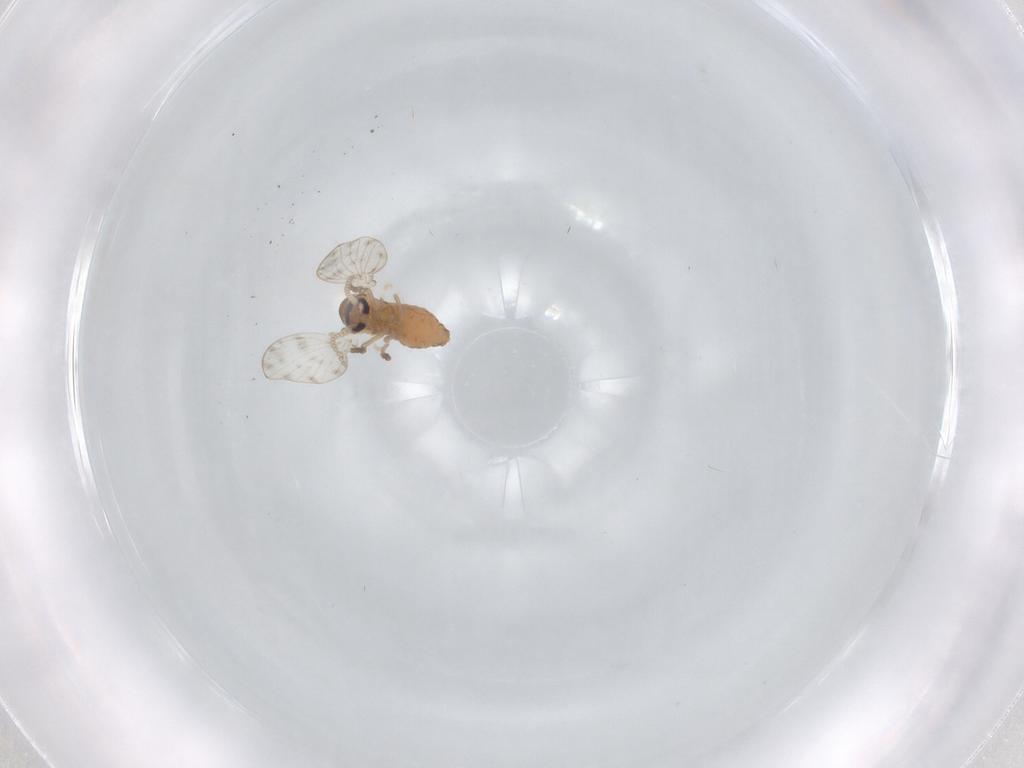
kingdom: Animalia
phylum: Arthropoda
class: Insecta
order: Diptera
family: Psychodidae
